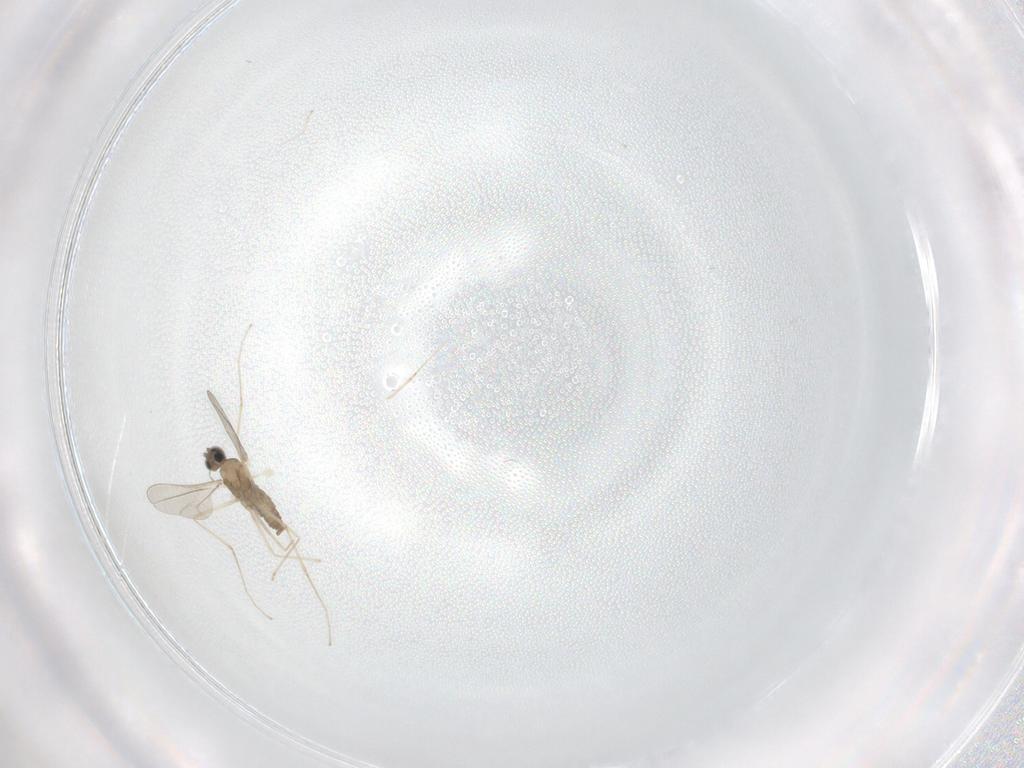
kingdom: Animalia
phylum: Arthropoda
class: Insecta
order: Diptera
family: Cecidomyiidae
